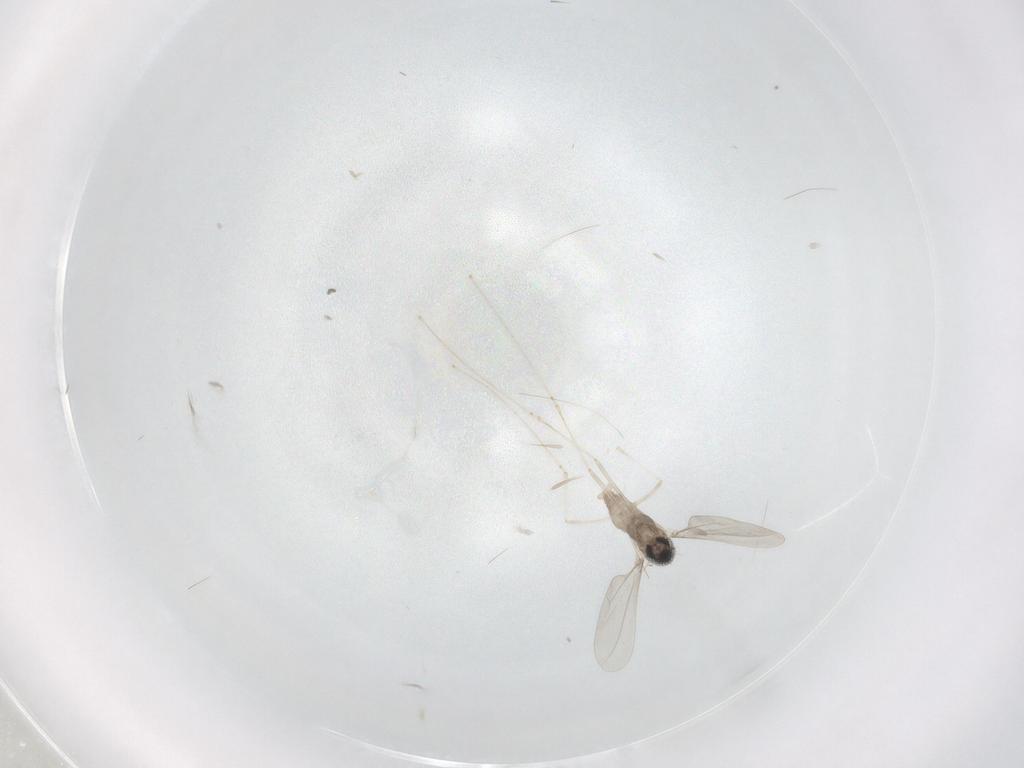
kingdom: Animalia
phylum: Arthropoda
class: Insecta
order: Diptera
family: Cecidomyiidae
